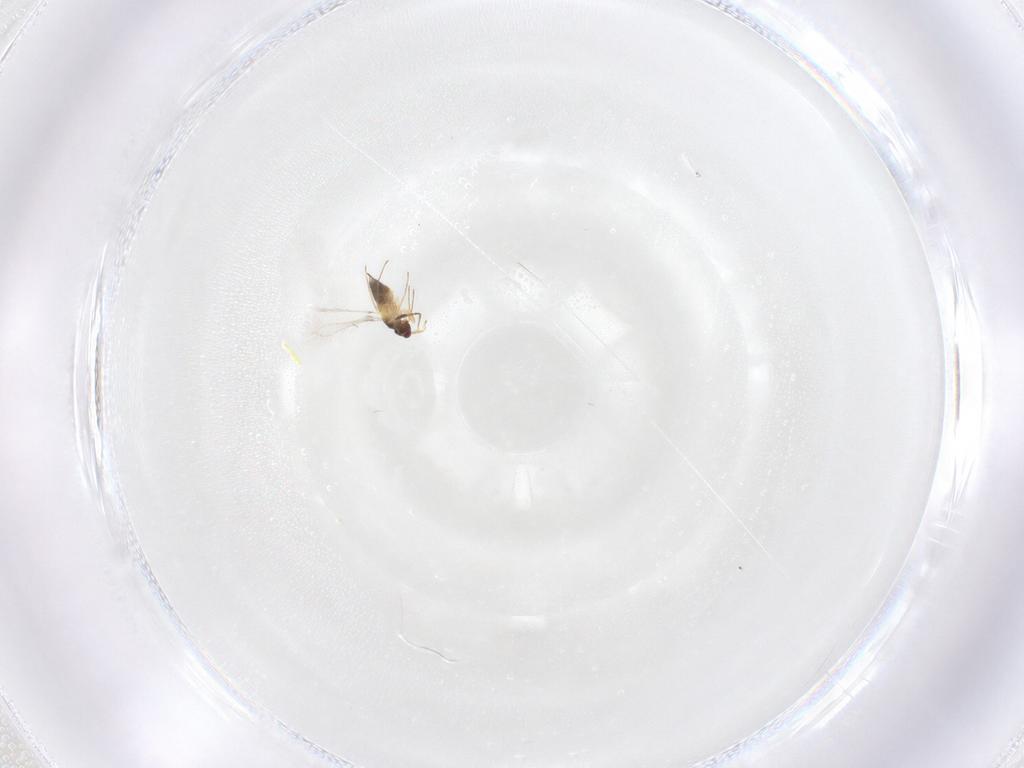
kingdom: Animalia
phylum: Arthropoda
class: Insecta
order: Hymenoptera
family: Mymaridae
